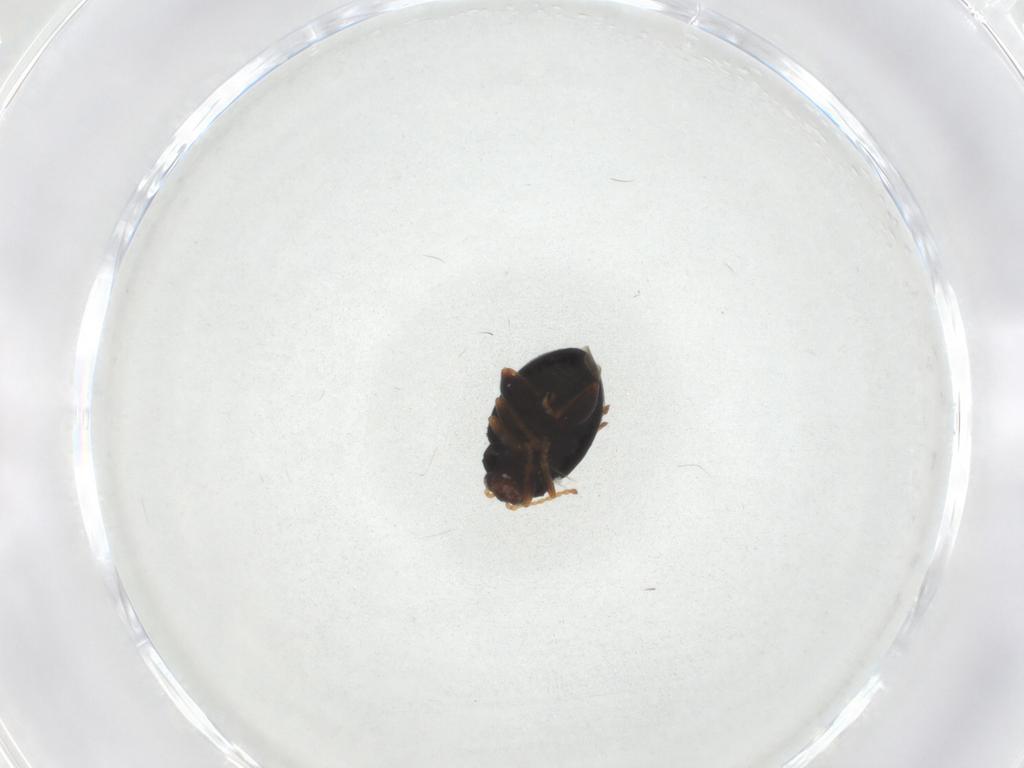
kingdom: Animalia
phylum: Arthropoda
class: Insecta
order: Coleoptera
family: Chrysomelidae
